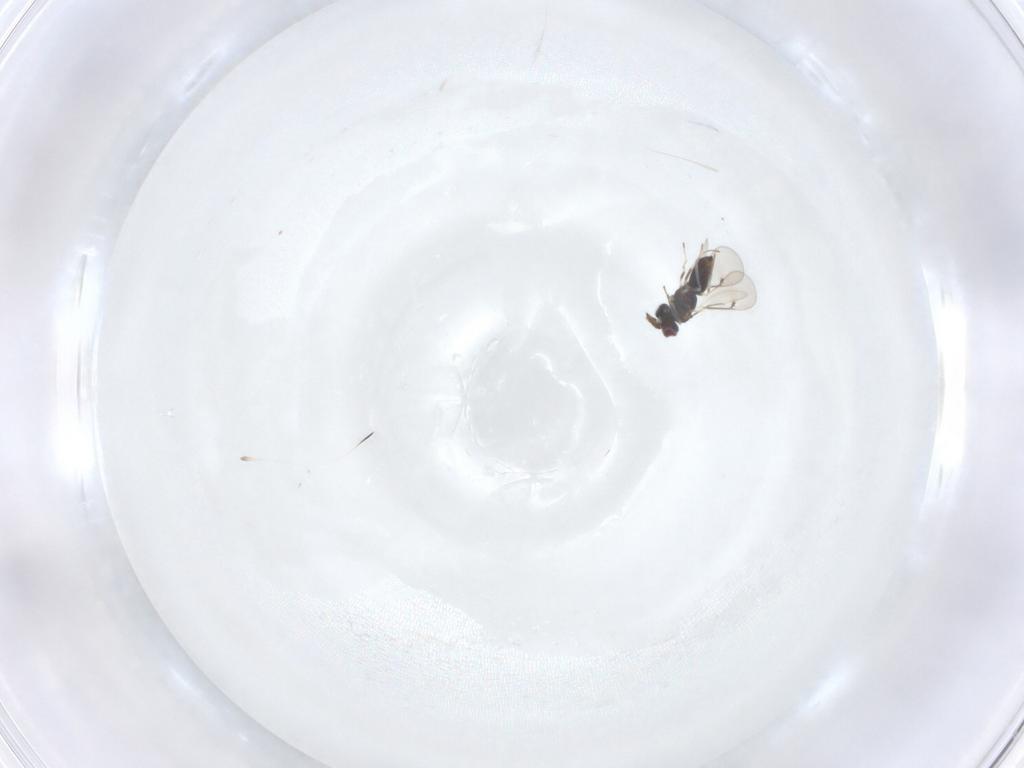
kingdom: Animalia
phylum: Arthropoda
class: Insecta
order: Hymenoptera
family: Eulophidae
